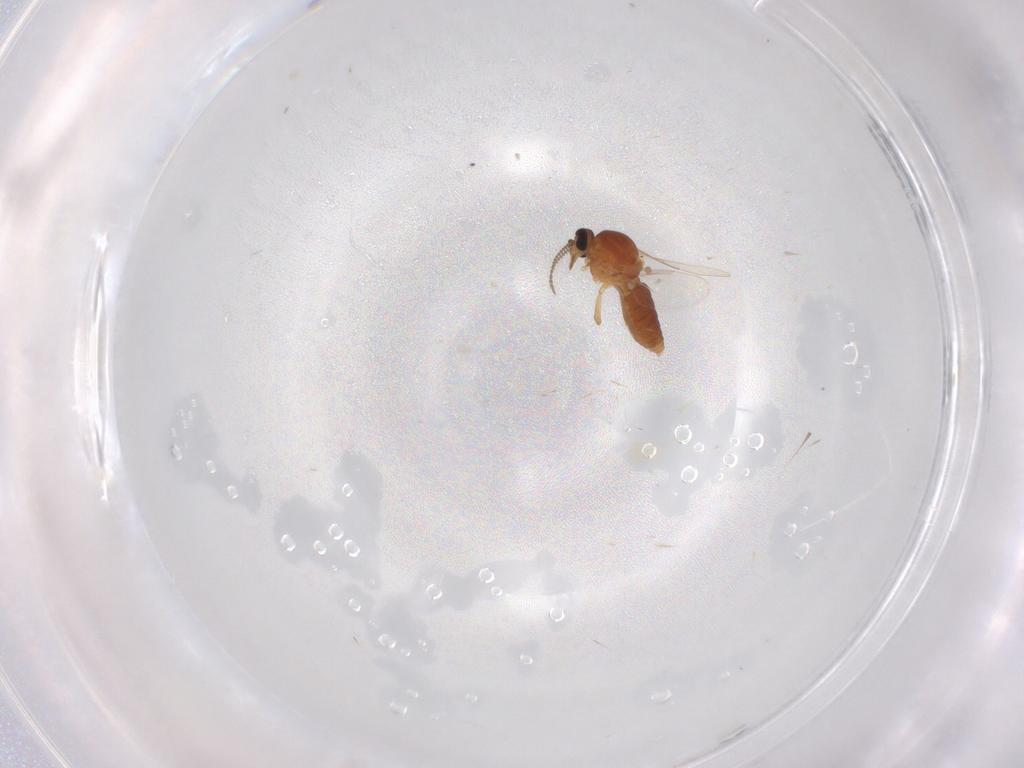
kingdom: Animalia
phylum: Arthropoda
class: Insecta
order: Diptera
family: Ceratopogonidae
